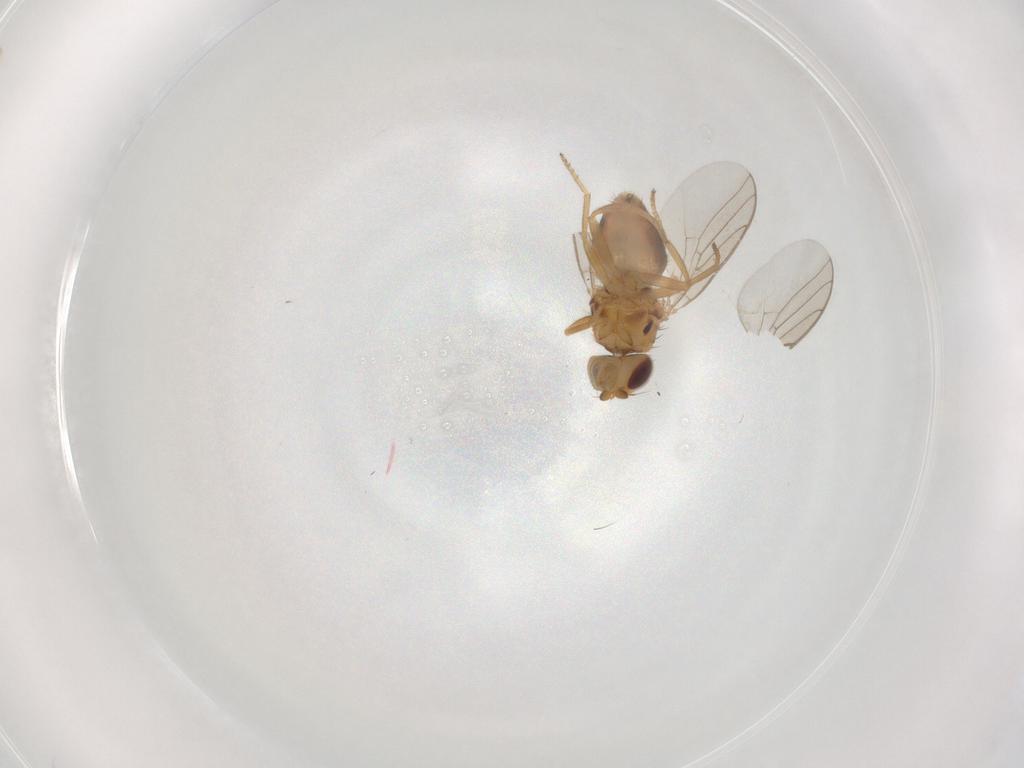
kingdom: Animalia
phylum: Arthropoda
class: Insecta
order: Diptera
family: Chloropidae
